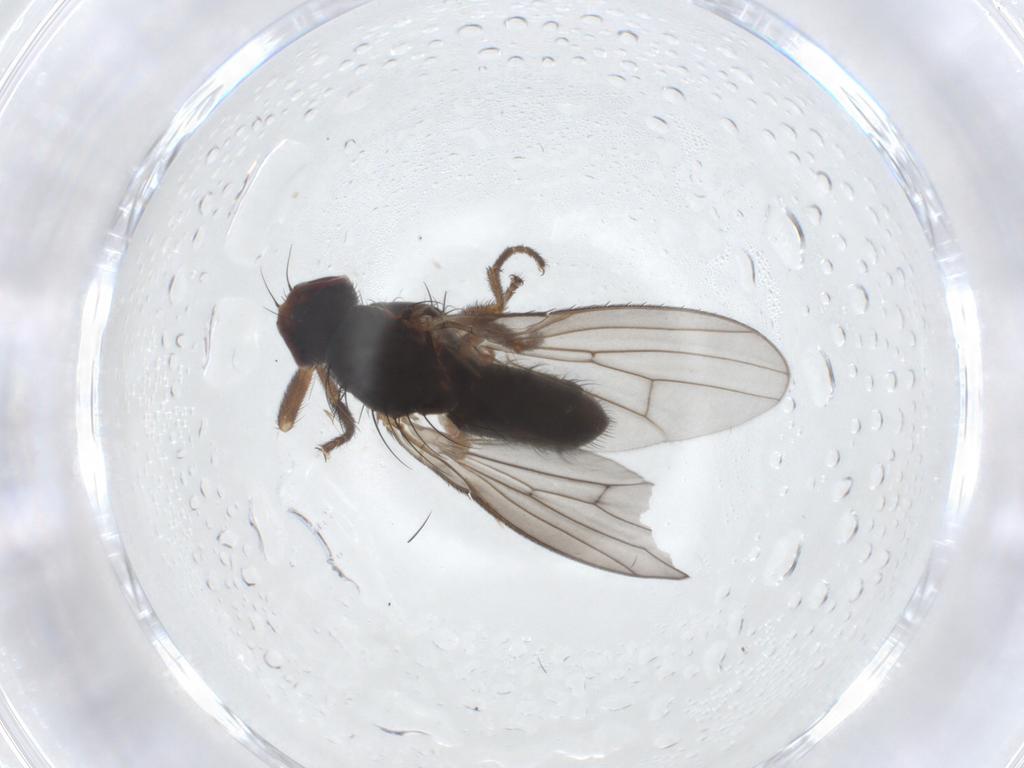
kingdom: Animalia
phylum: Arthropoda
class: Insecta
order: Diptera
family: Heleomyzidae
